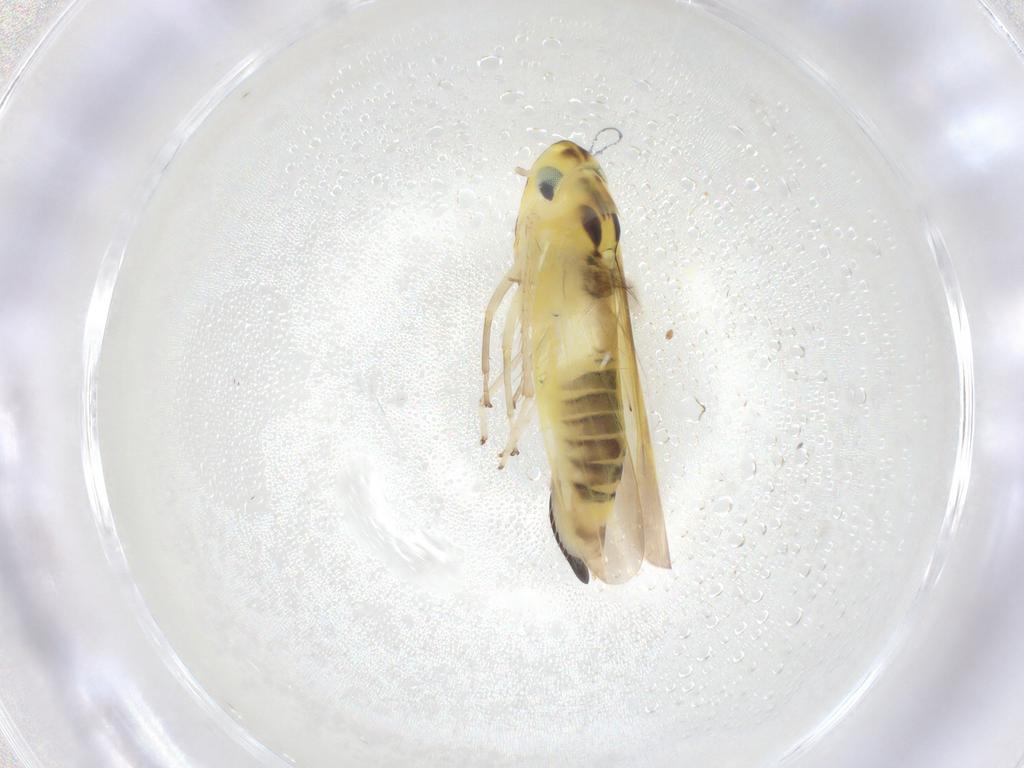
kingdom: Animalia
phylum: Arthropoda
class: Insecta
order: Hemiptera
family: Cicadellidae
